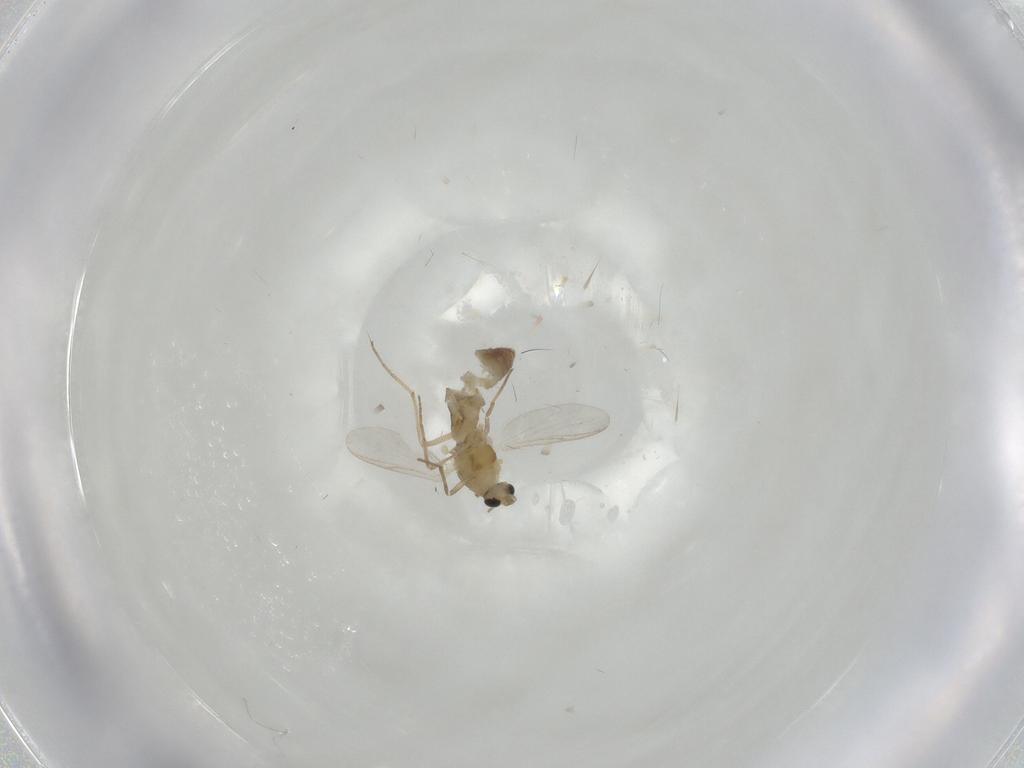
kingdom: Animalia
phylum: Arthropoda
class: Insecta
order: Diptera
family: Chironomidae
